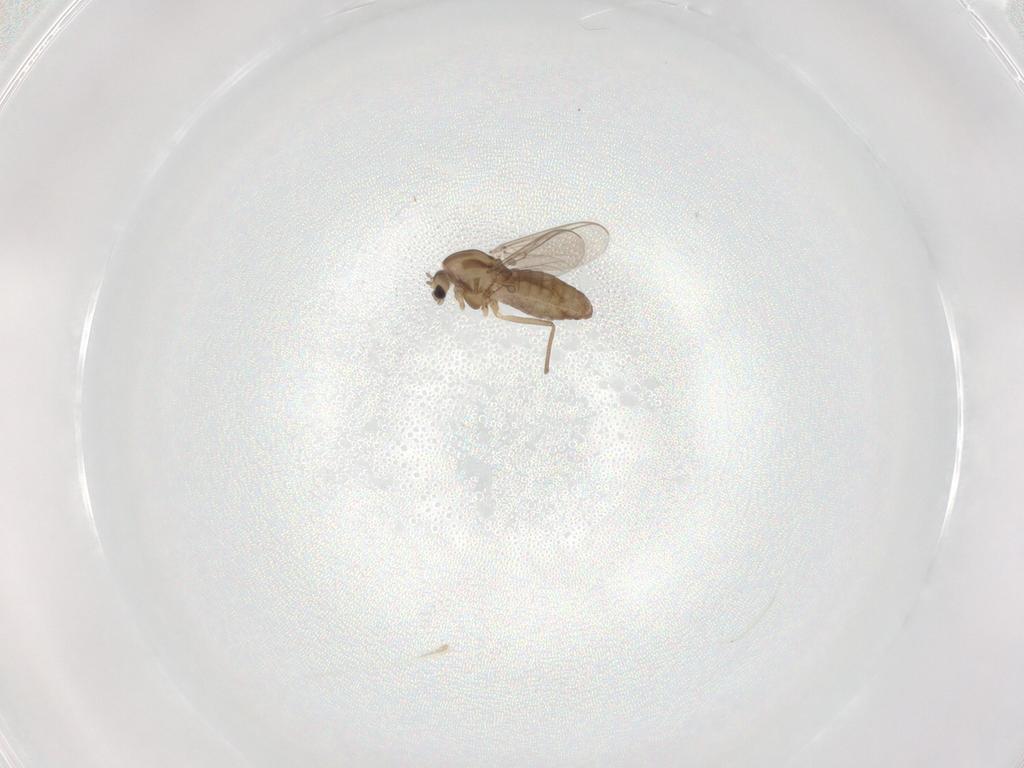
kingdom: Animalia
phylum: Arthropoda
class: Insecta
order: Diptera
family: Chironomidae
